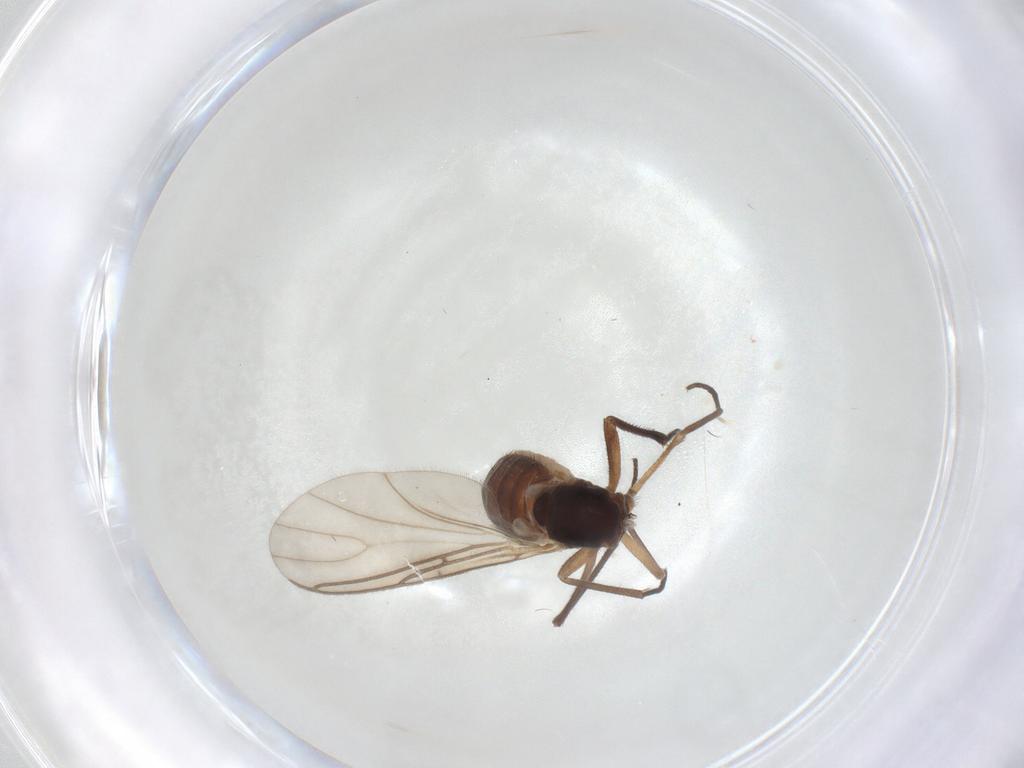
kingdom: Animalia
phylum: Arthropoda
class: Insecta
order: Diptera
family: Sciaridae
